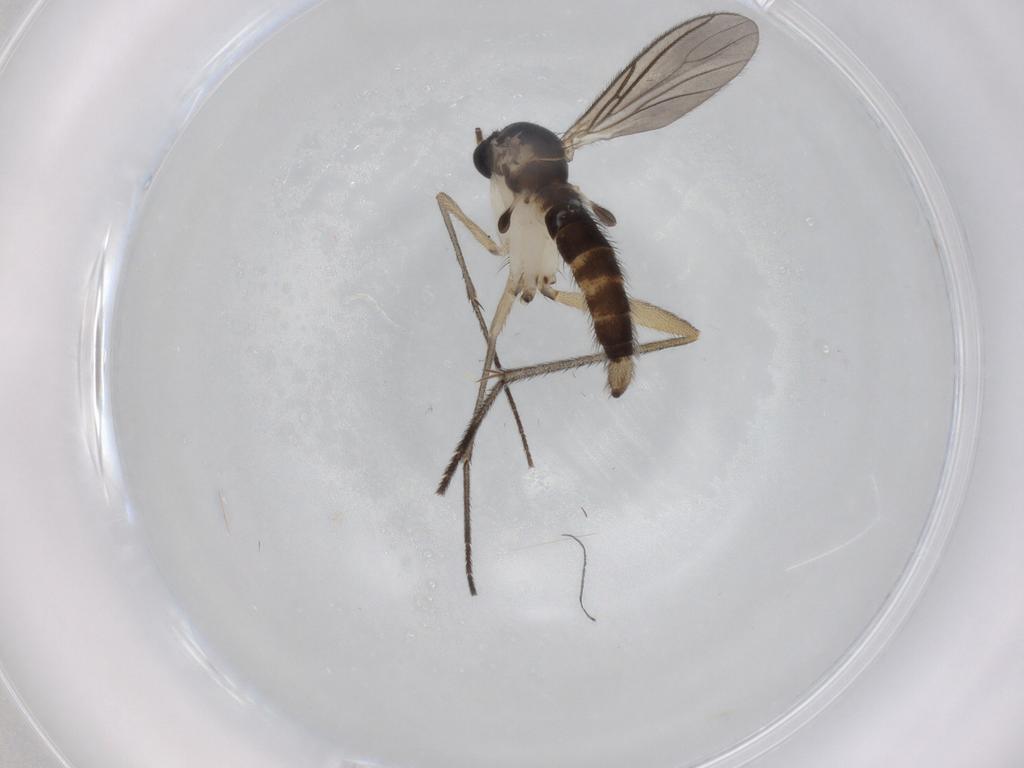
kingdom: Animalia
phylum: Arthropoda
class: Insecta
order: Diptera
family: Sciaridae
